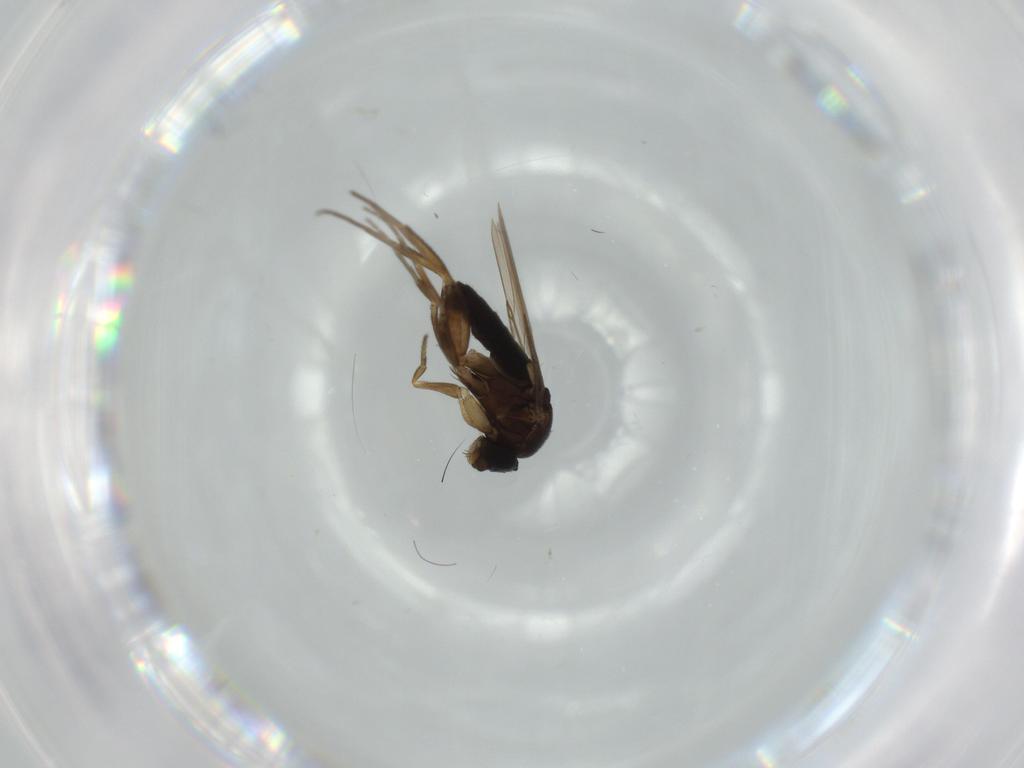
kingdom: Animalia
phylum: Arthropoda
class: Insecta
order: Diptera
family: Phoridae
